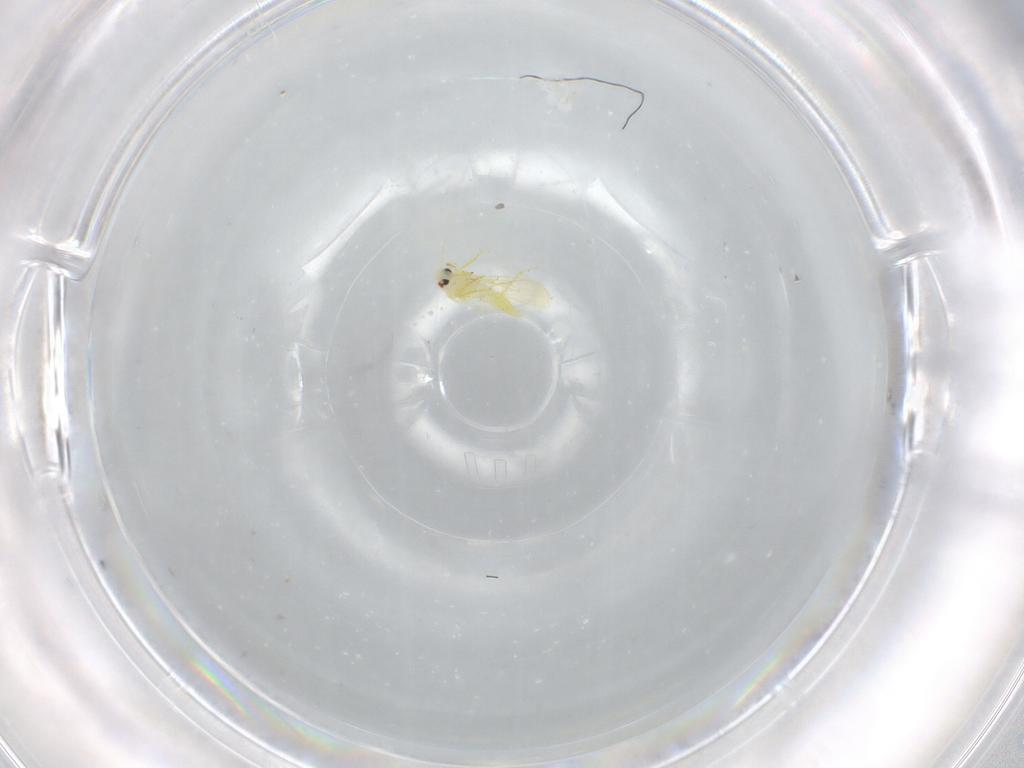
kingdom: Animalia
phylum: Arthropoda
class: Insecta
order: Hemiptera
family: Aleyrodidae
